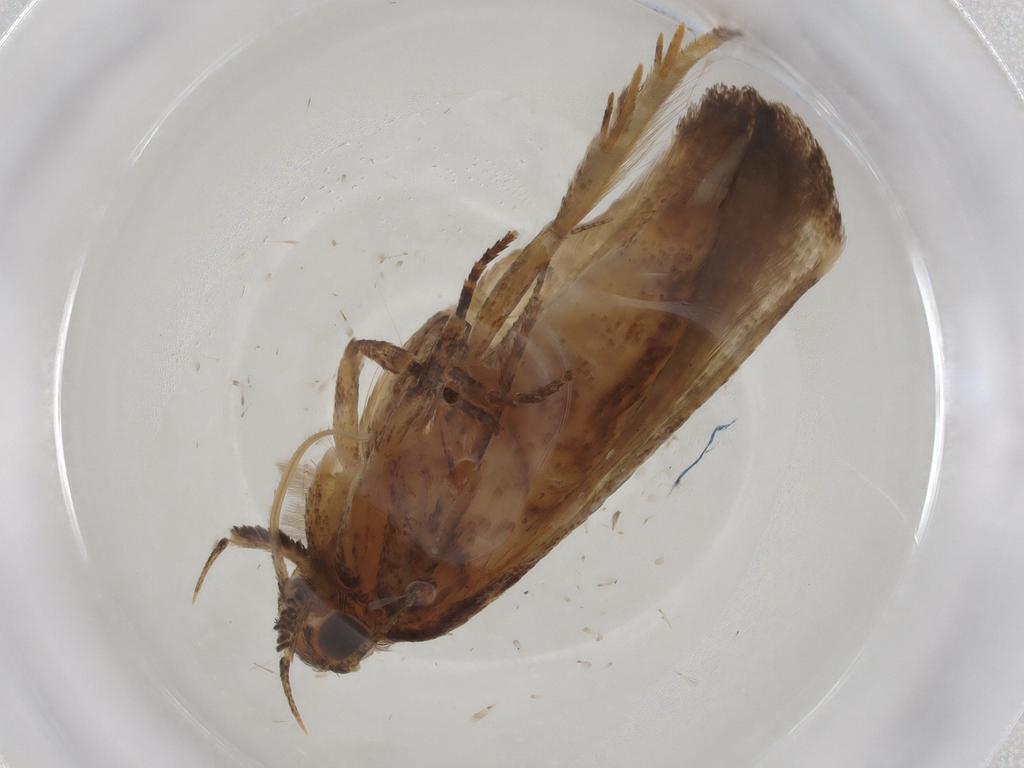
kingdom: Animalia
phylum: Arthropoda
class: Insecta
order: Lepidoptera
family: Gelechiidae
